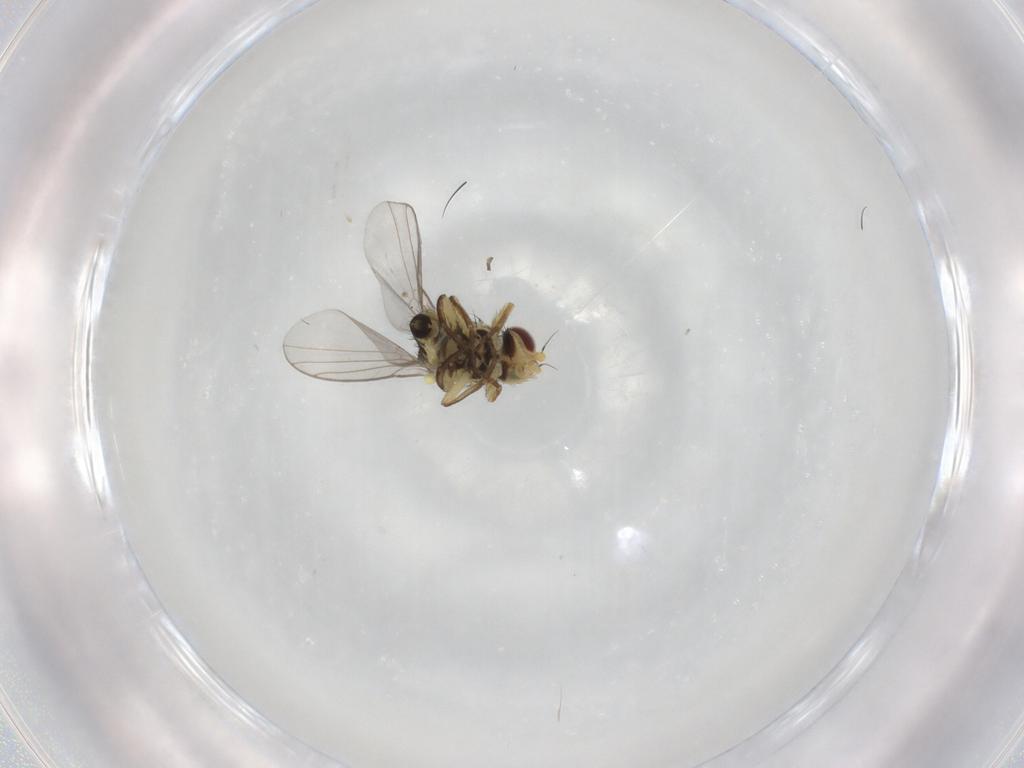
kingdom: Animalia
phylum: Arthropoda
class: Insecta
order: Diptera
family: Agromyzidae
